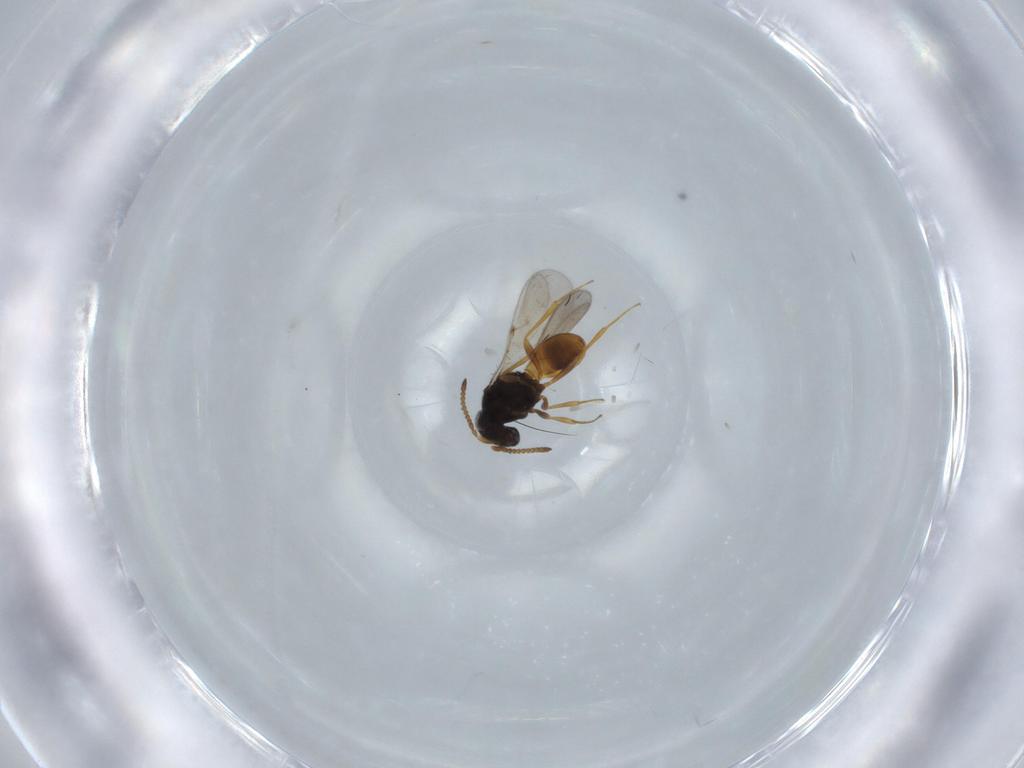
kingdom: Animalia
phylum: Arthropoda
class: Insecta
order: Hymenoptera
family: Scelionidae
